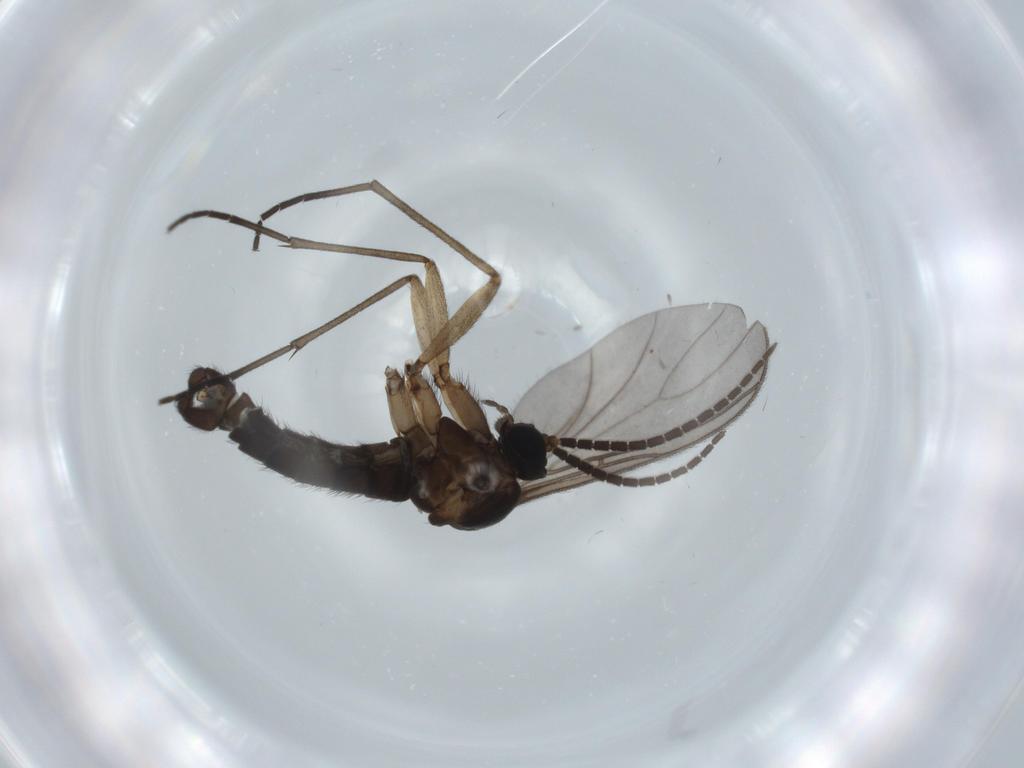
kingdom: Animalia
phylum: Arthropoda
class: Insecta
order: Diptera
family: Sciaridae
